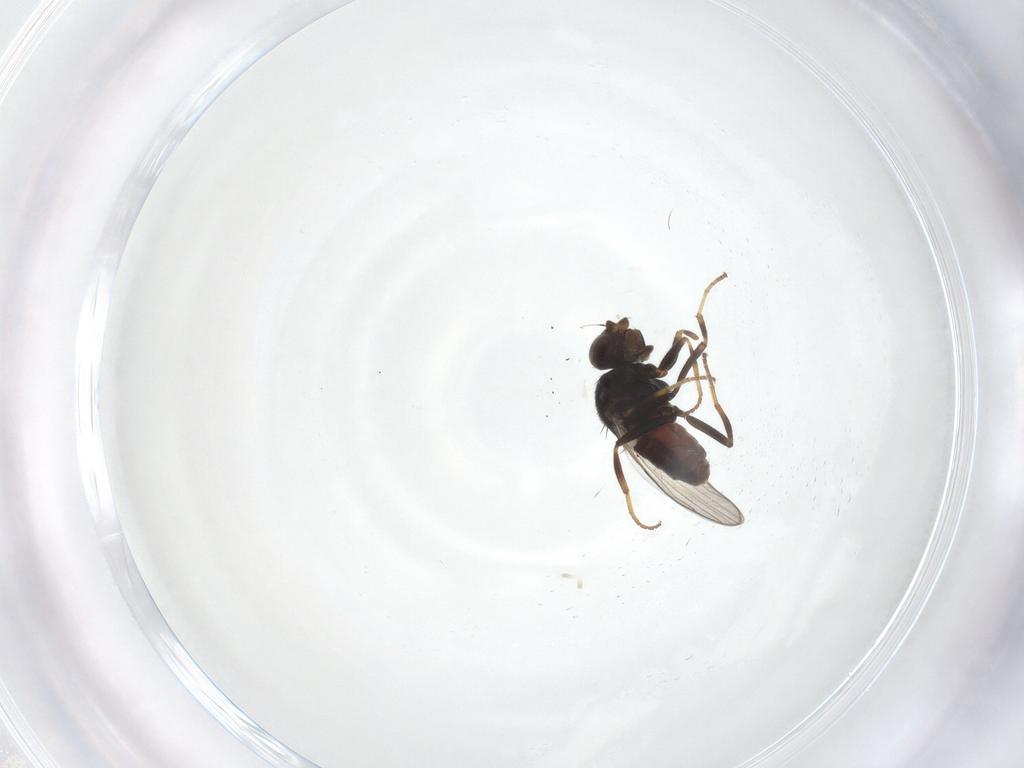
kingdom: Animalia
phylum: Arthropoda
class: Insecta
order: Diptera
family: Chloropidae
